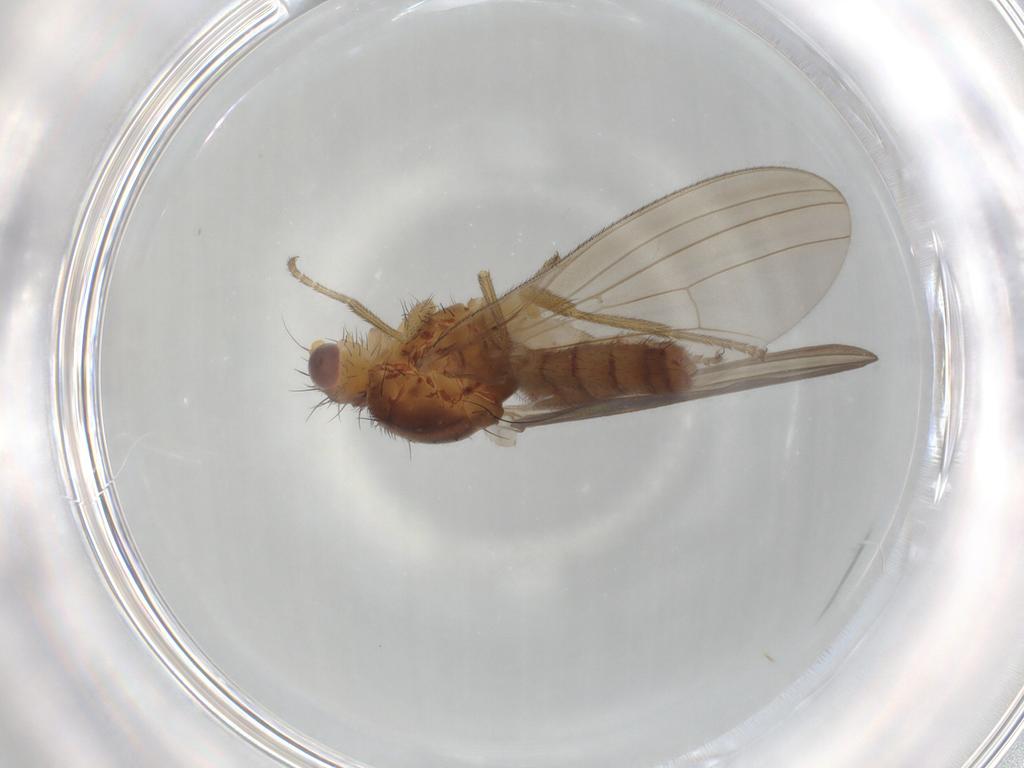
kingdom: Animalia
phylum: Arthropoda
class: Insecta
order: Diptera
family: Natalimyzidae
